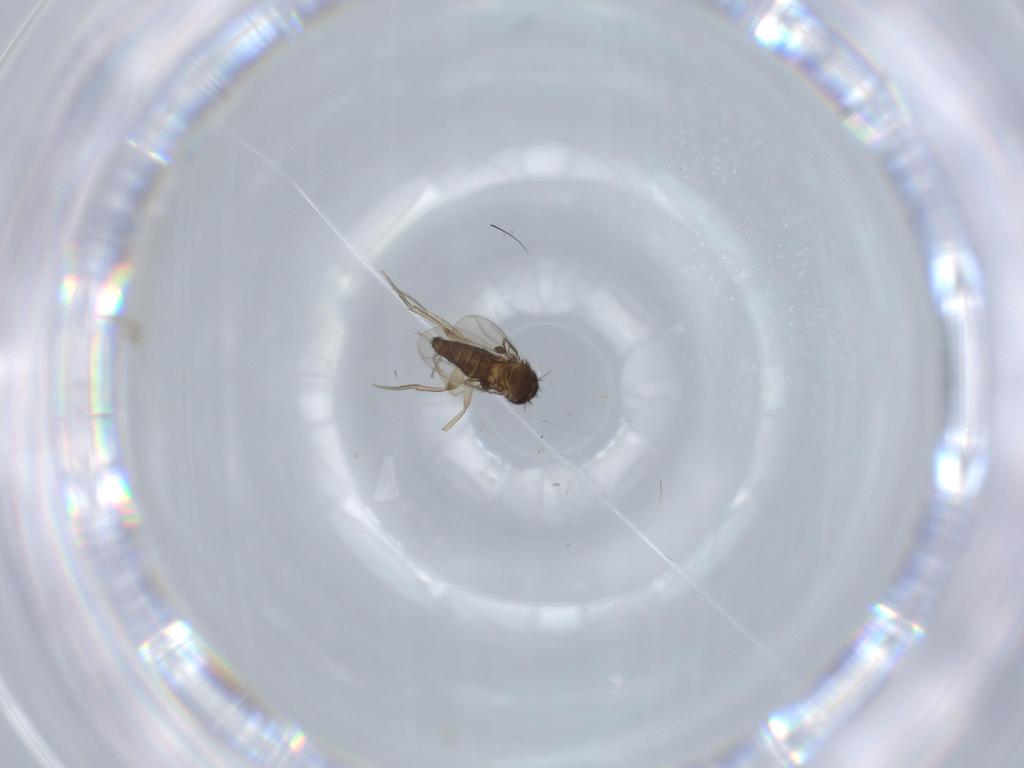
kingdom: Animalia
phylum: Arthropoda
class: Insecta
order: Diptera
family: Phoridae
